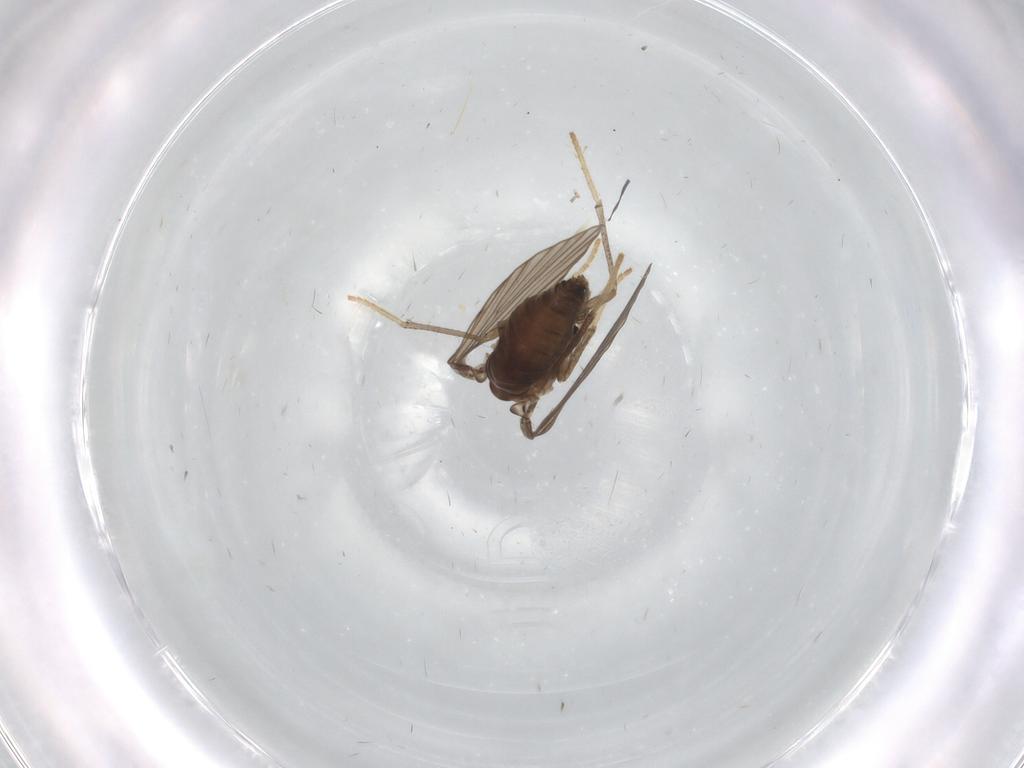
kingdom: Animalia
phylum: Arthropoda
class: Insecta
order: Diptera
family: Psychodidae
